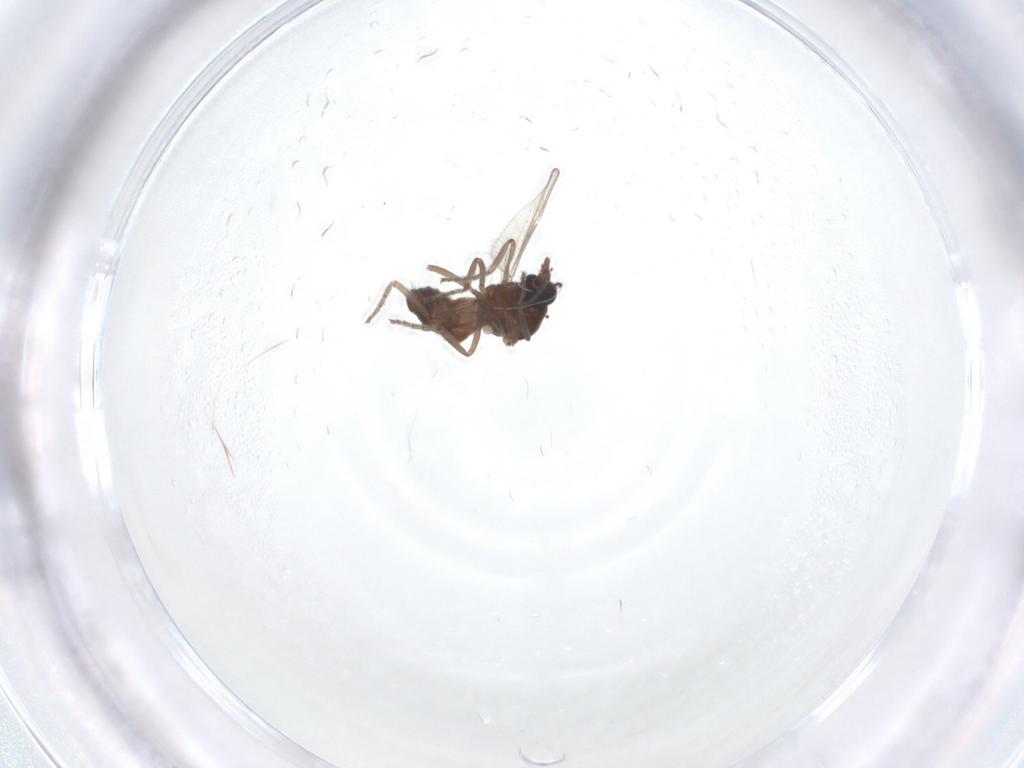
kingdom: Animalia
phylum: Arthropoda
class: Insecta
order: Diptera
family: Ceratopogonidae
